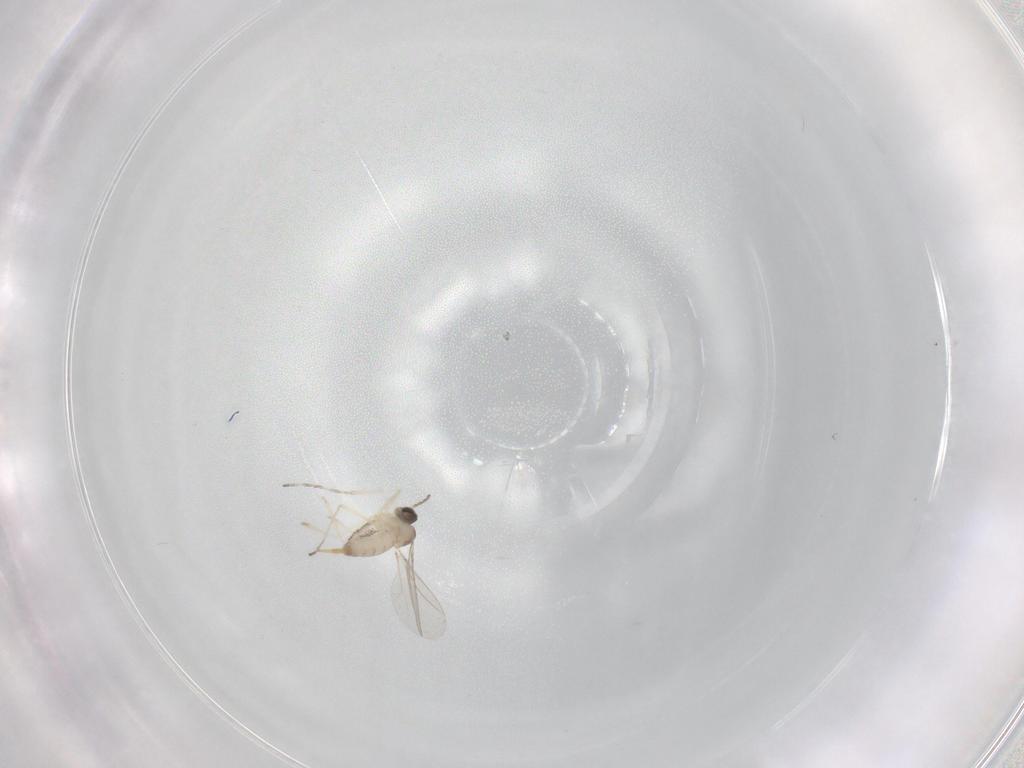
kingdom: Animalia
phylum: Arthropoda
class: Insecta
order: Diptera
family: Cecidomyiidae
